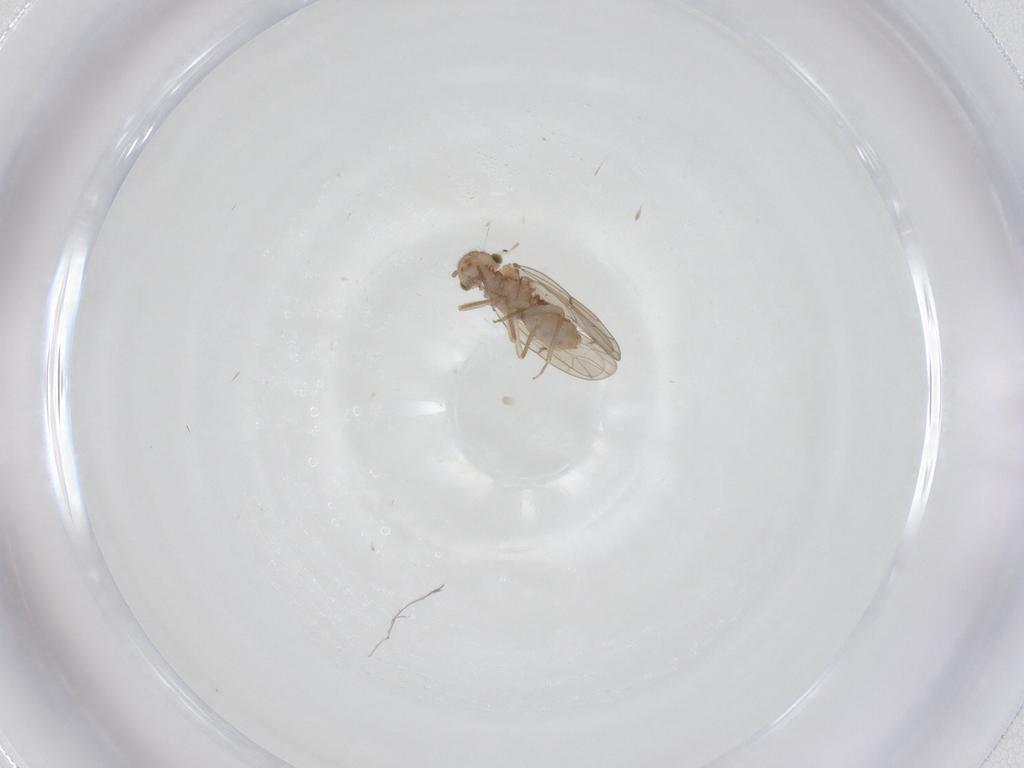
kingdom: Animalia
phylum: Arthropoda
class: Insecta
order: Psocodea
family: Ectopsocidae
